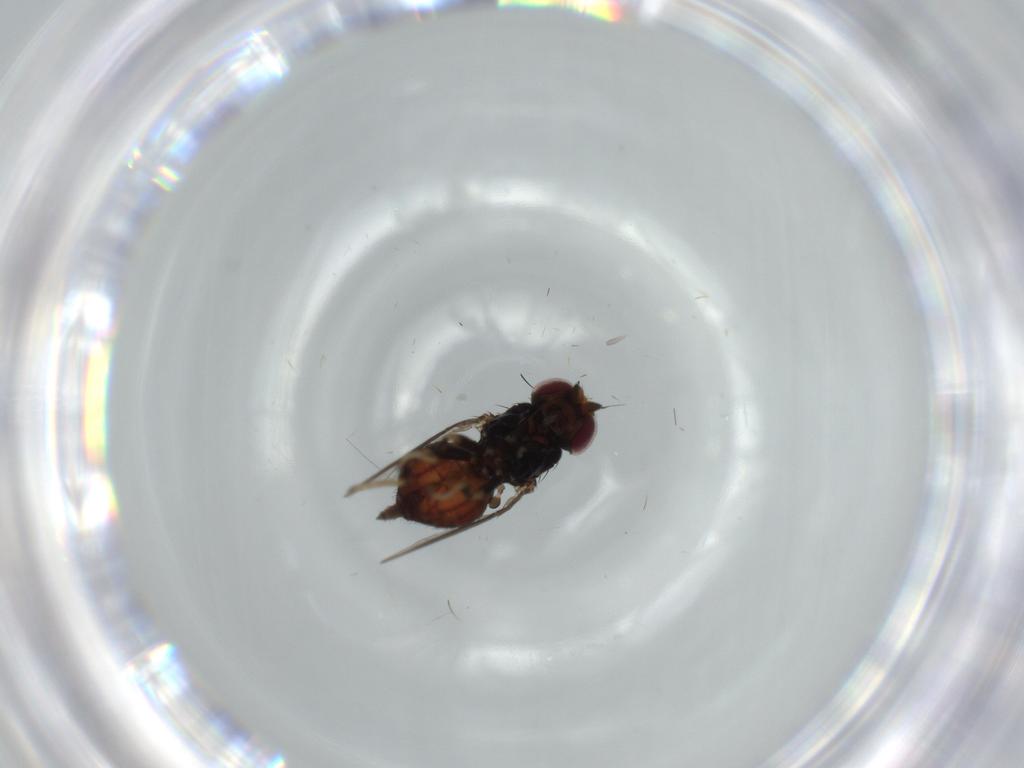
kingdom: Animalia
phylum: Arthropoda
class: Insecta
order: Diptera
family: Chloropidae
